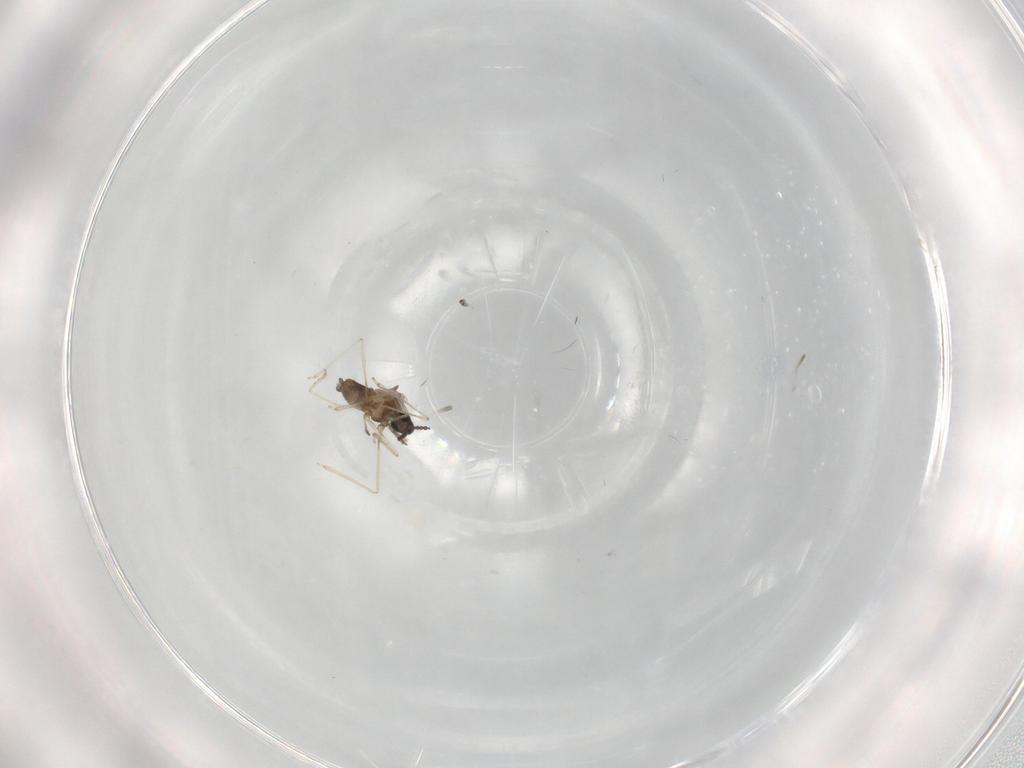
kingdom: Animalia
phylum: Arthropoda
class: Insecta
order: Diptera
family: Cecidomyiidae
